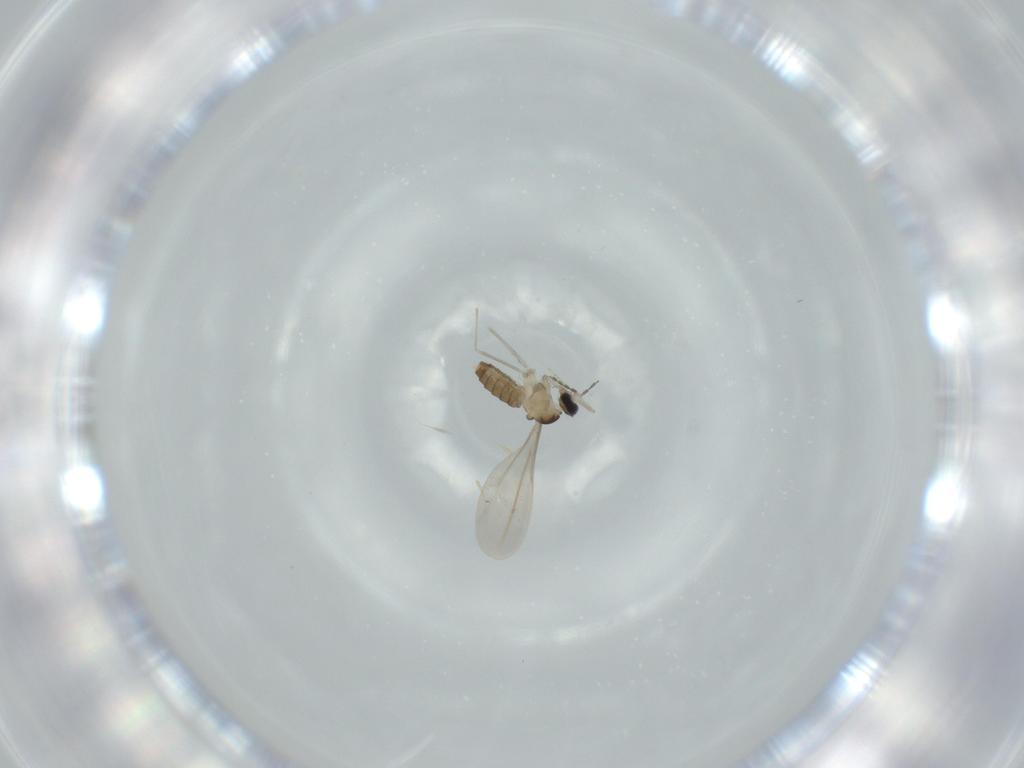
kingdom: Animalia
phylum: Arthropoda
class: Insecta
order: Diptera
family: Cecidomyiidae
